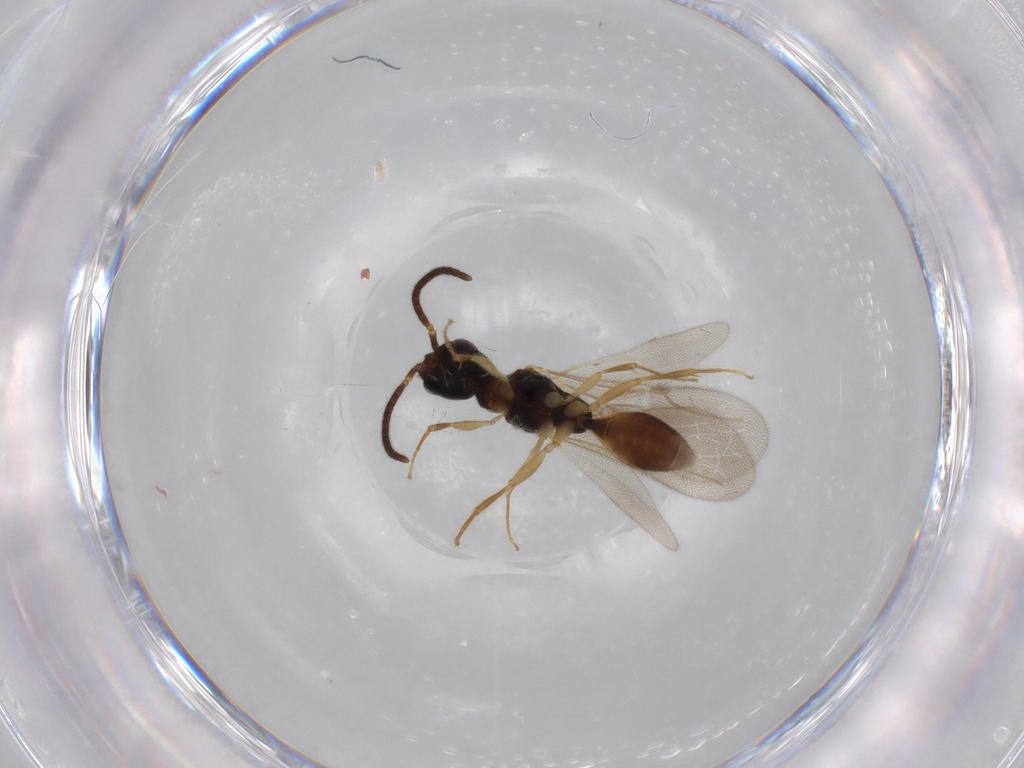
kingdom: Animalia
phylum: Arthropoda
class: Insecta
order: Hymenoptera
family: Bethylidae
